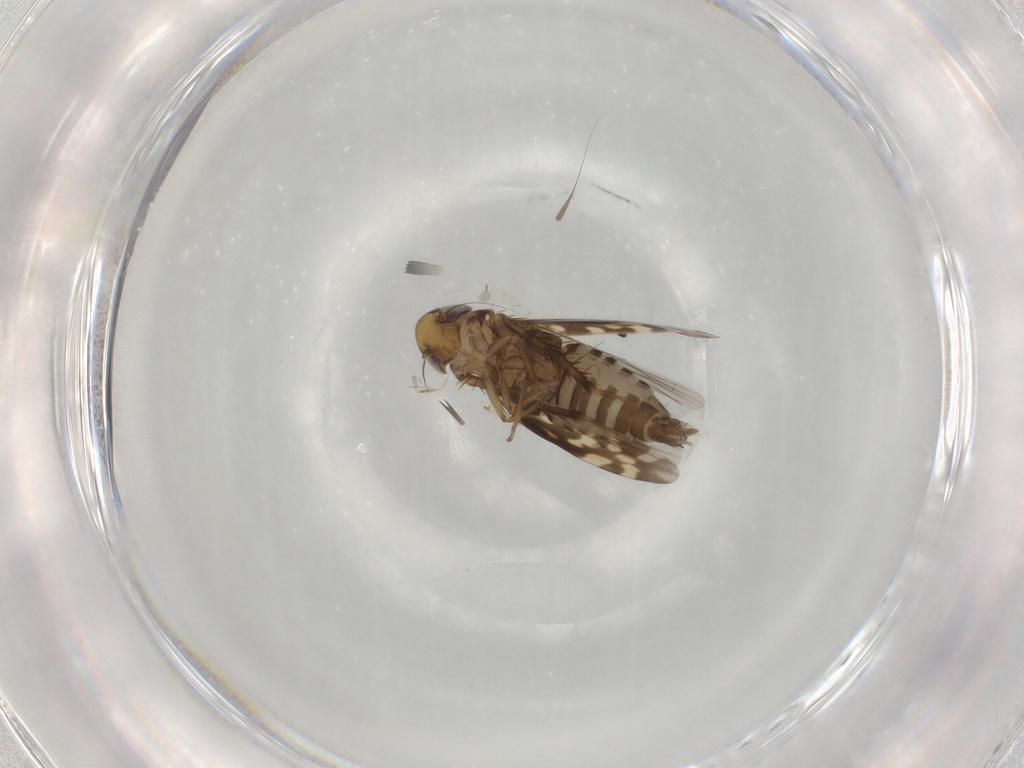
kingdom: Animalia
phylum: Arthropoda
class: Insecta
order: Hemiptera
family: Cicadellidae
